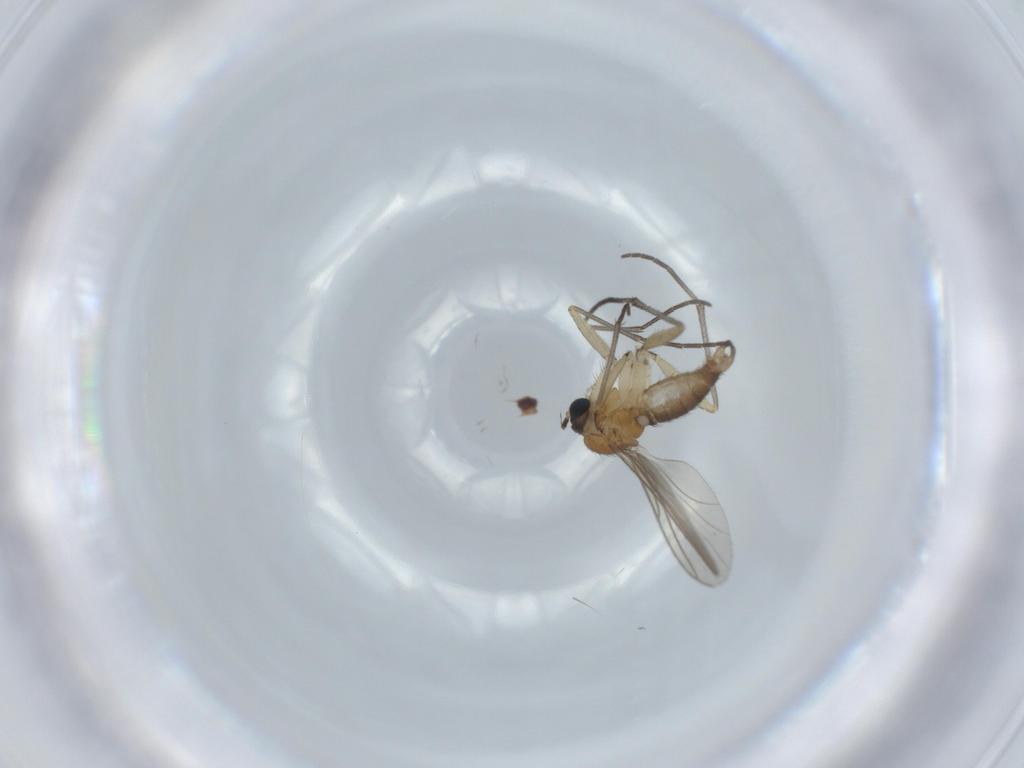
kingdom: Animalia
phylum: Arthropoda
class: Insecta
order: Diptera
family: Sciaridae
